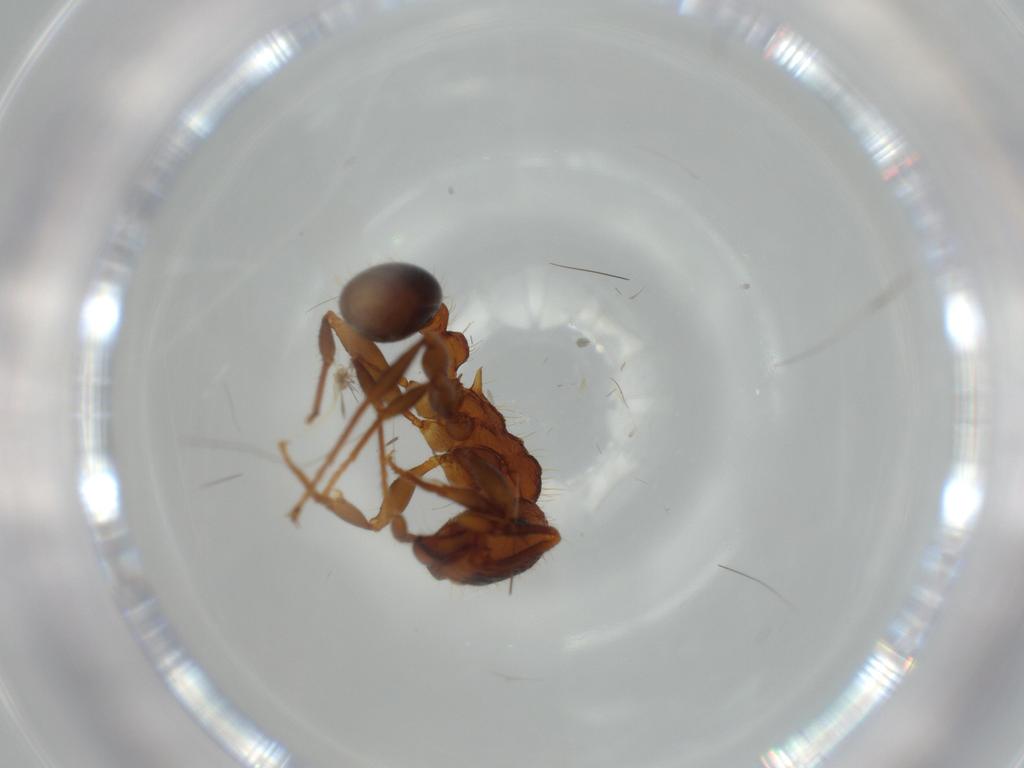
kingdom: Animalia
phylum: Arthropoda
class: Insecta
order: Hymenoptera
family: Formicidae
